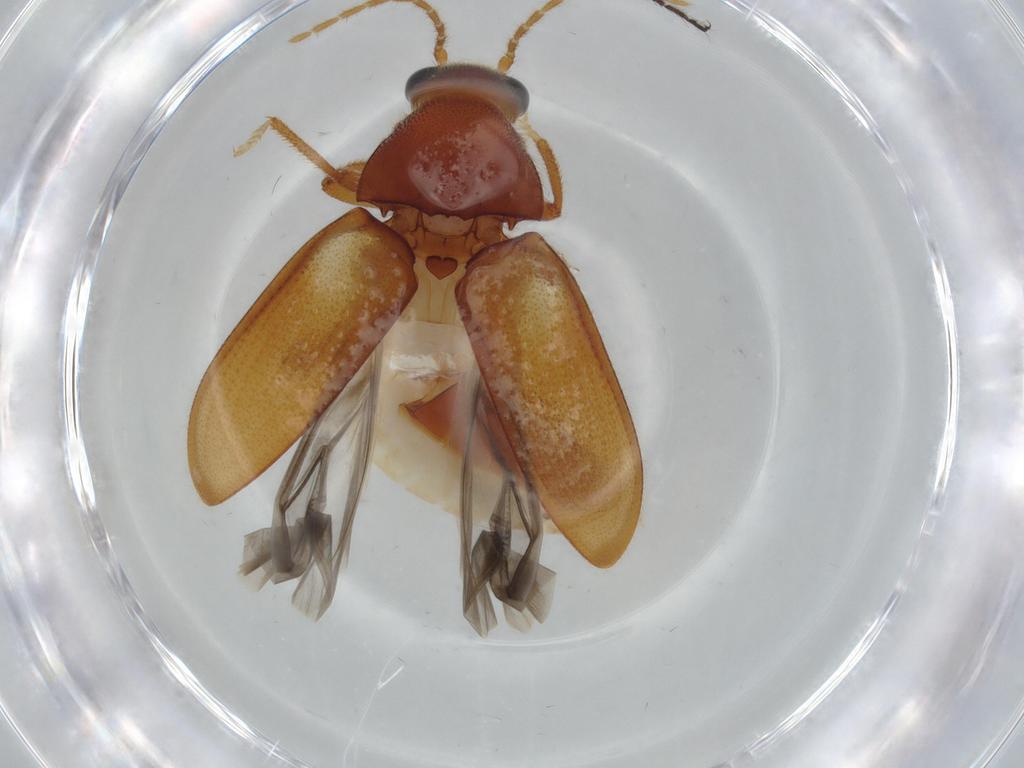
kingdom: Animalia
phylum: Arthropoda
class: Insecta
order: Coleoptera
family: Ptilodactylidae
